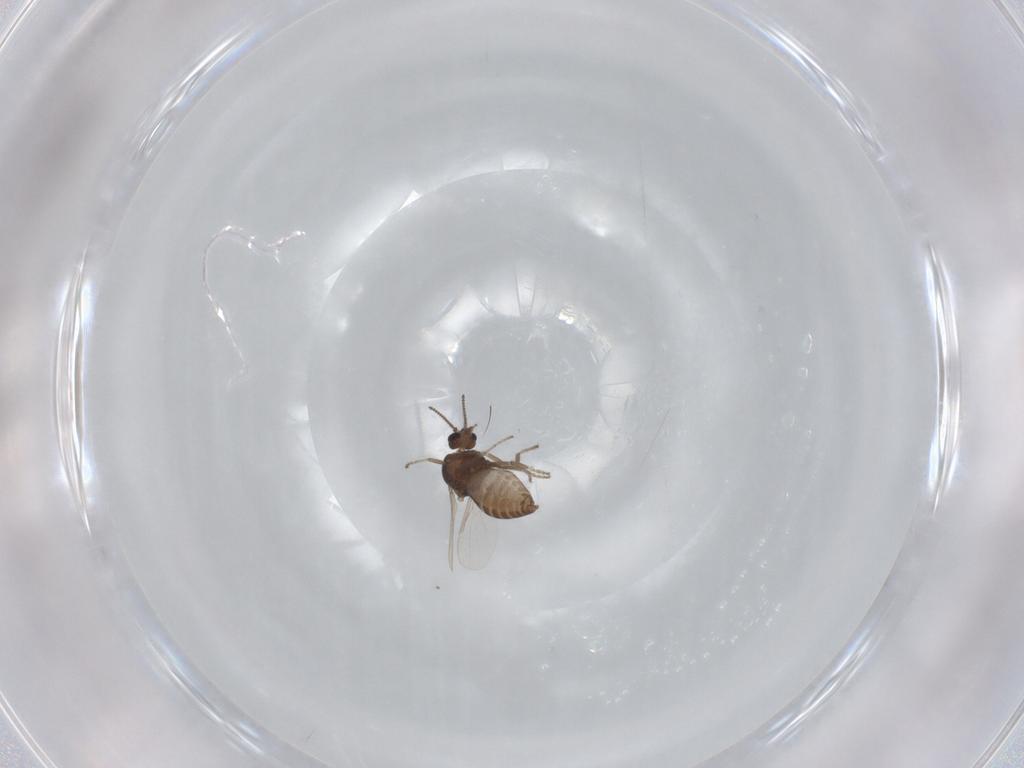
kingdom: Animalia
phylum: Arthropoda
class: Insecta
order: Diptera
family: Ceratopogonidae
